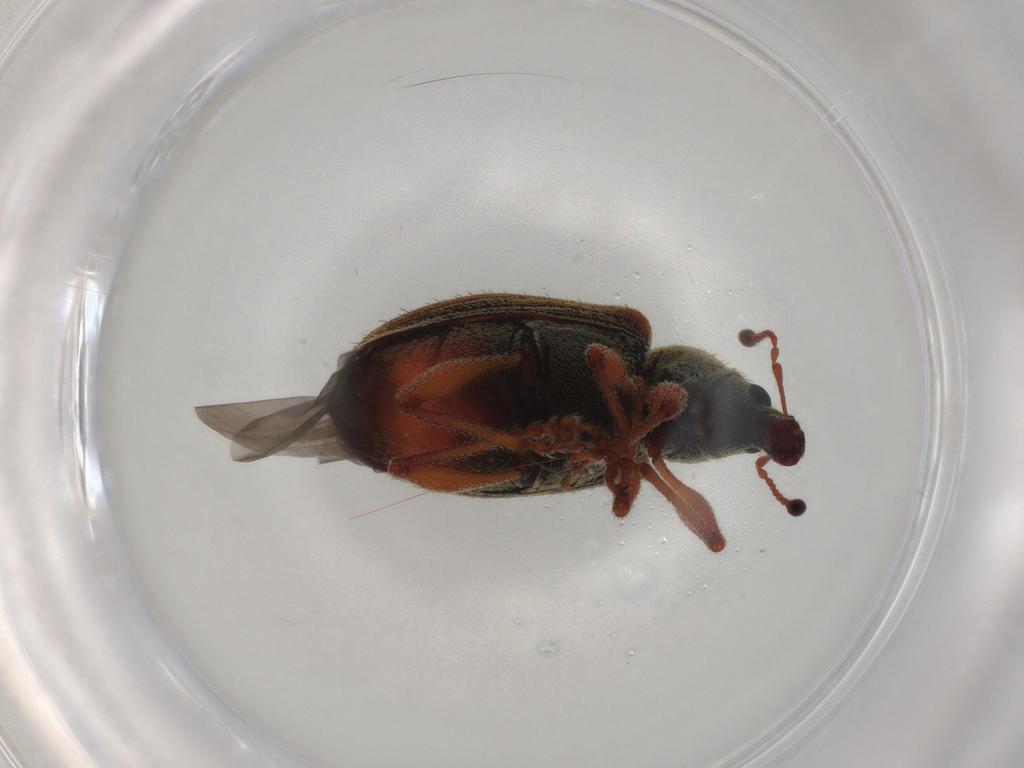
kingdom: Animalia
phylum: Arthropoda
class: Insecta
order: Coleoptera
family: Curculionidae
